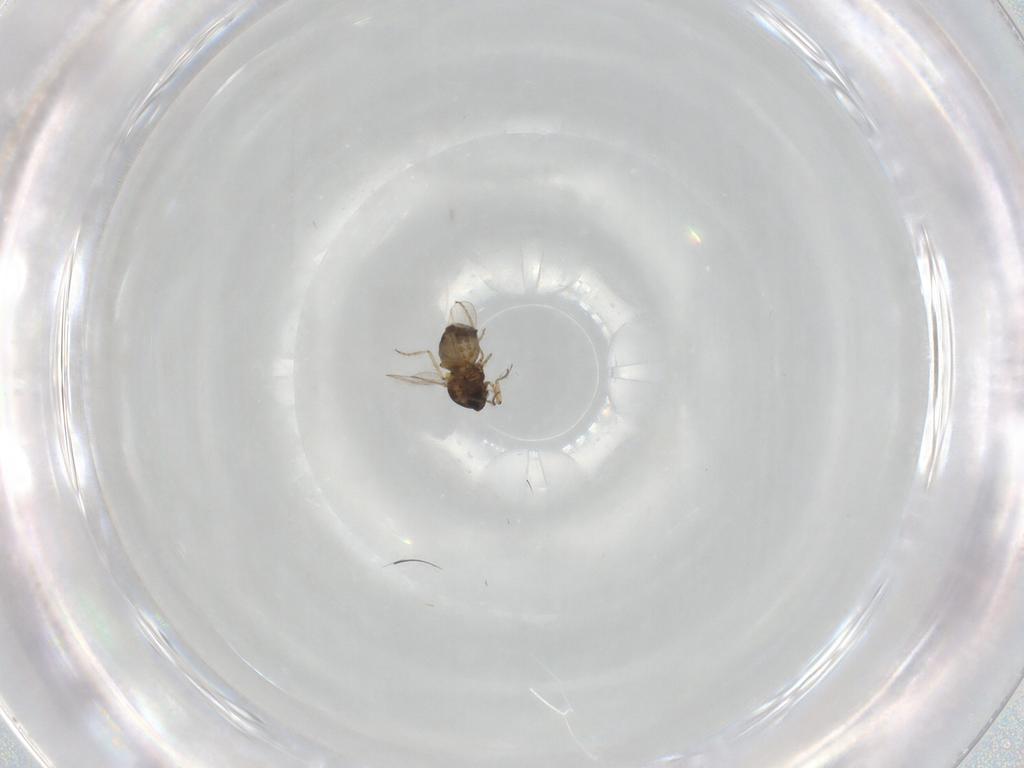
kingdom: Animalia
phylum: Arthropoda
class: Insecta
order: Diptera
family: Ceratopogonidae
